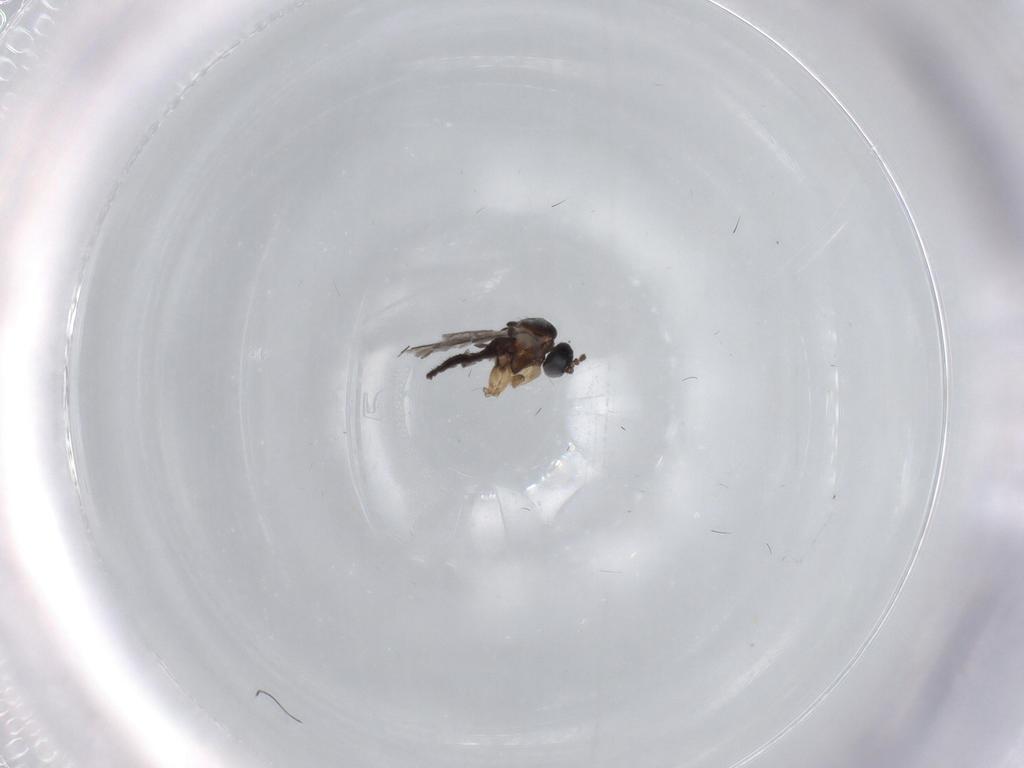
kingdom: Animalia
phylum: Arthropoda
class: Insecta
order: Diptera
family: Sciaridae
